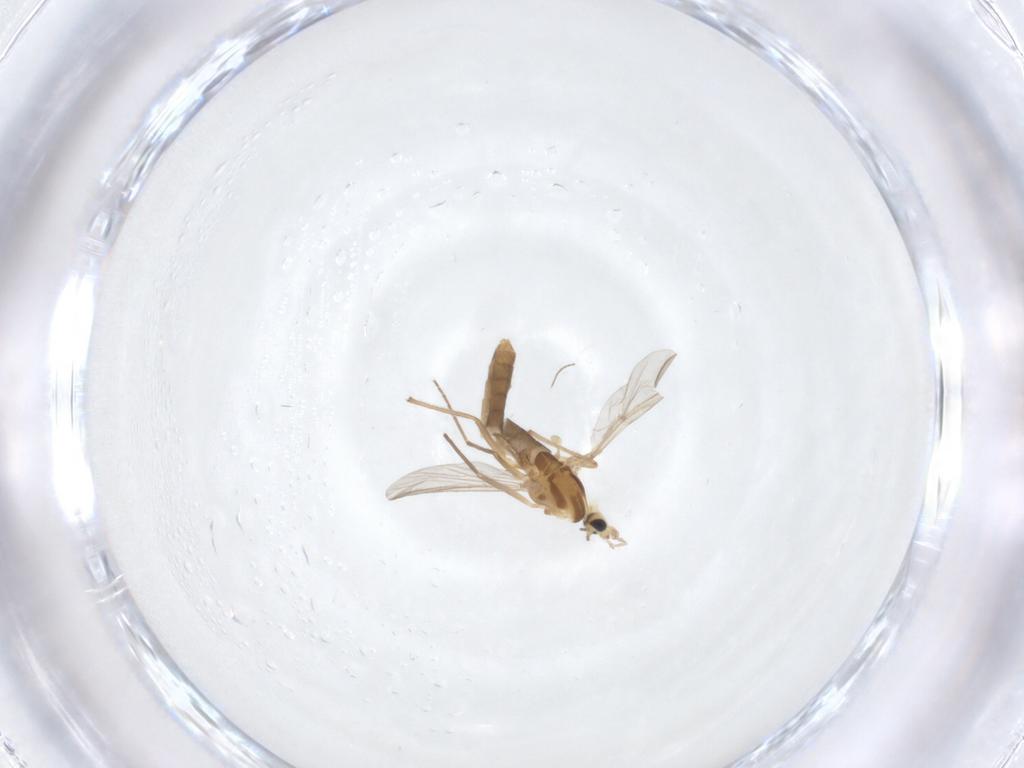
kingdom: Animalia
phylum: Arthropoda
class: Insecta
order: Diptera
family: Chironomidae
